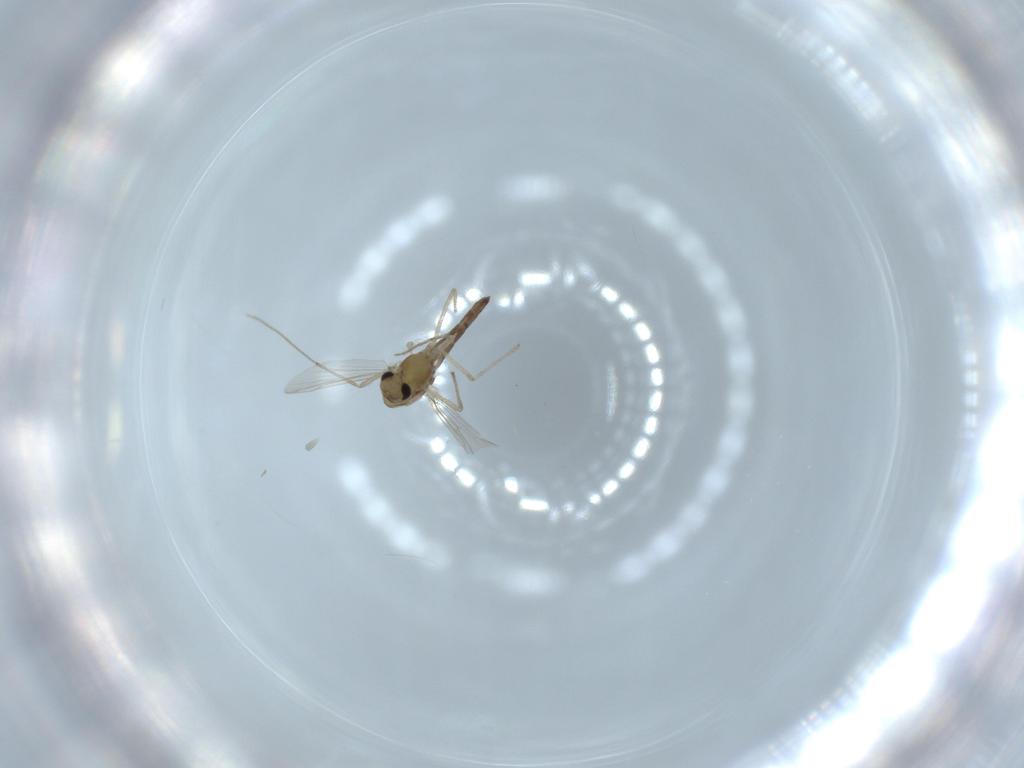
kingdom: Animalia
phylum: Arthropoda
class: Insecta
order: Diptera
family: Chironomidae
